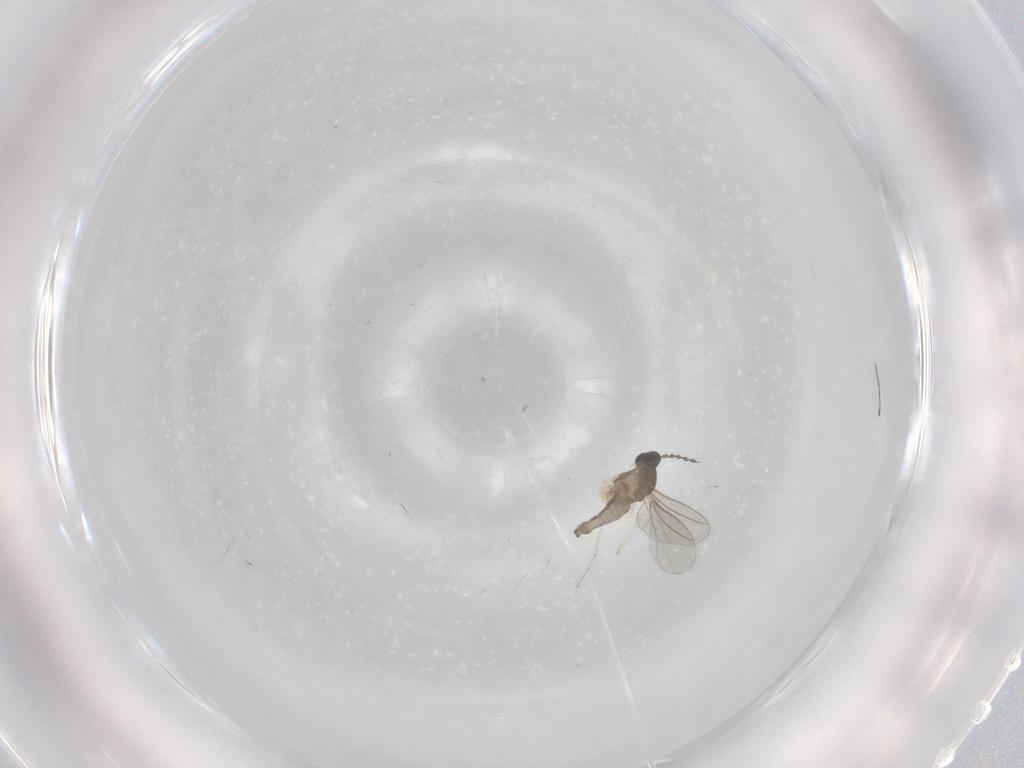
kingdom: Animalia
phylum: Arthropoda
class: Insecta
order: Diptera
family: Cecidomyiidae
